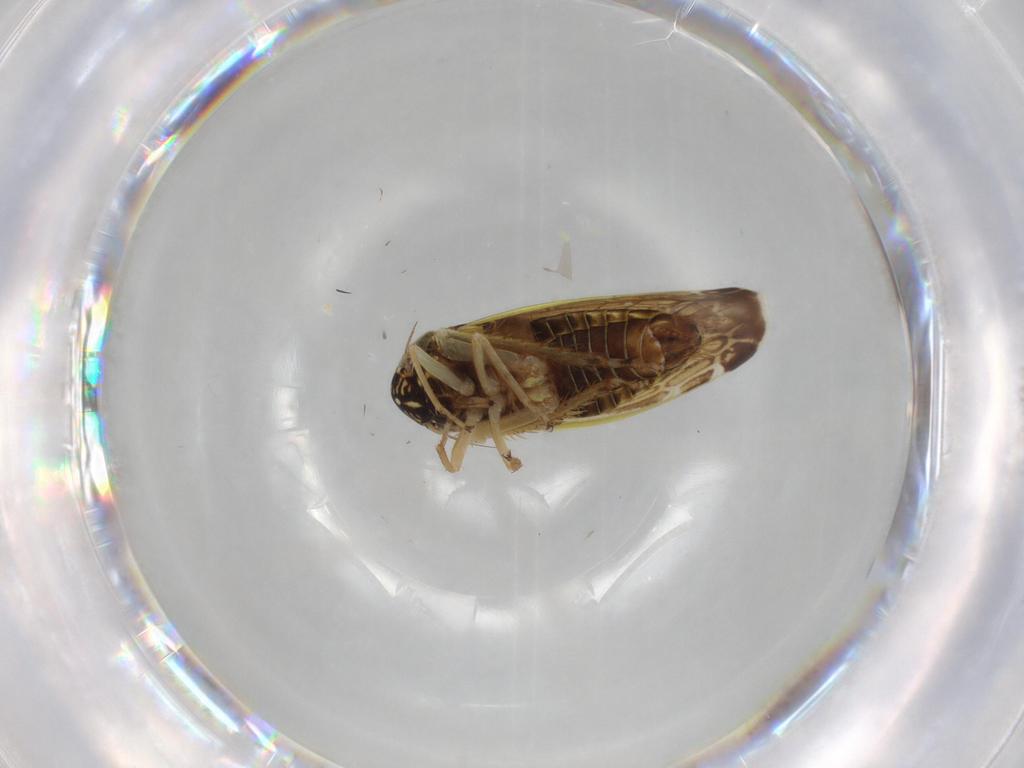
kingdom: Animalia
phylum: Arthropoda
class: Insecta
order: Hemiptera
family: Cicadellidae
